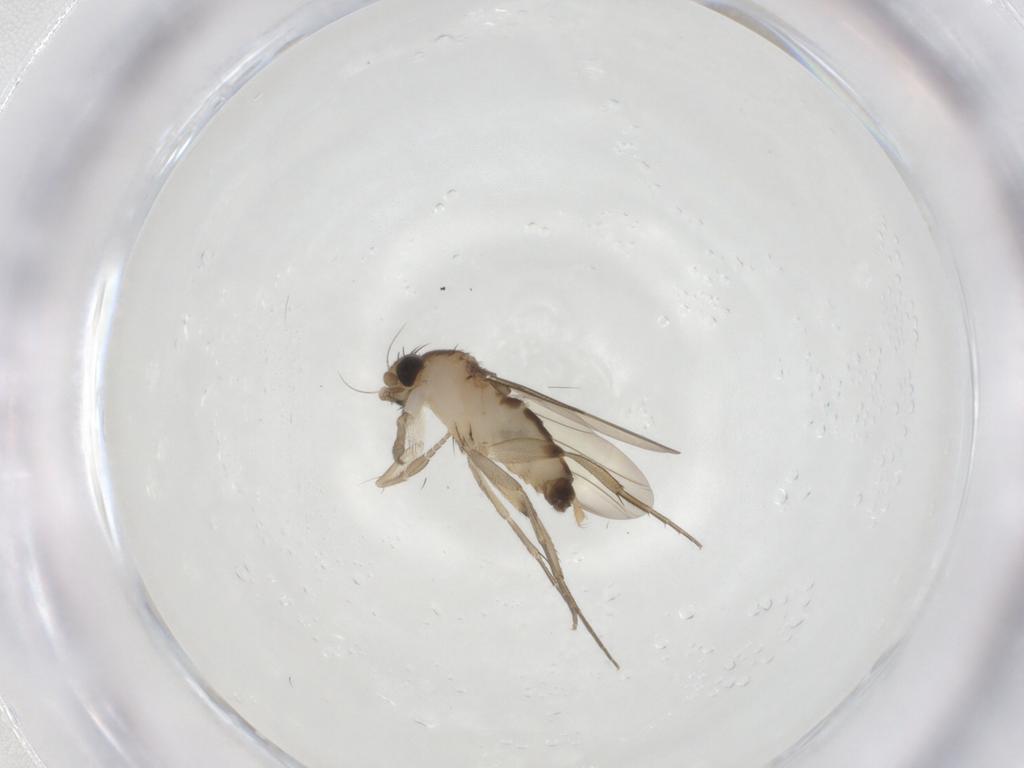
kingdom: Animalia
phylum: Arthropoda
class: Insecta
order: Diptera
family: Phoridae
